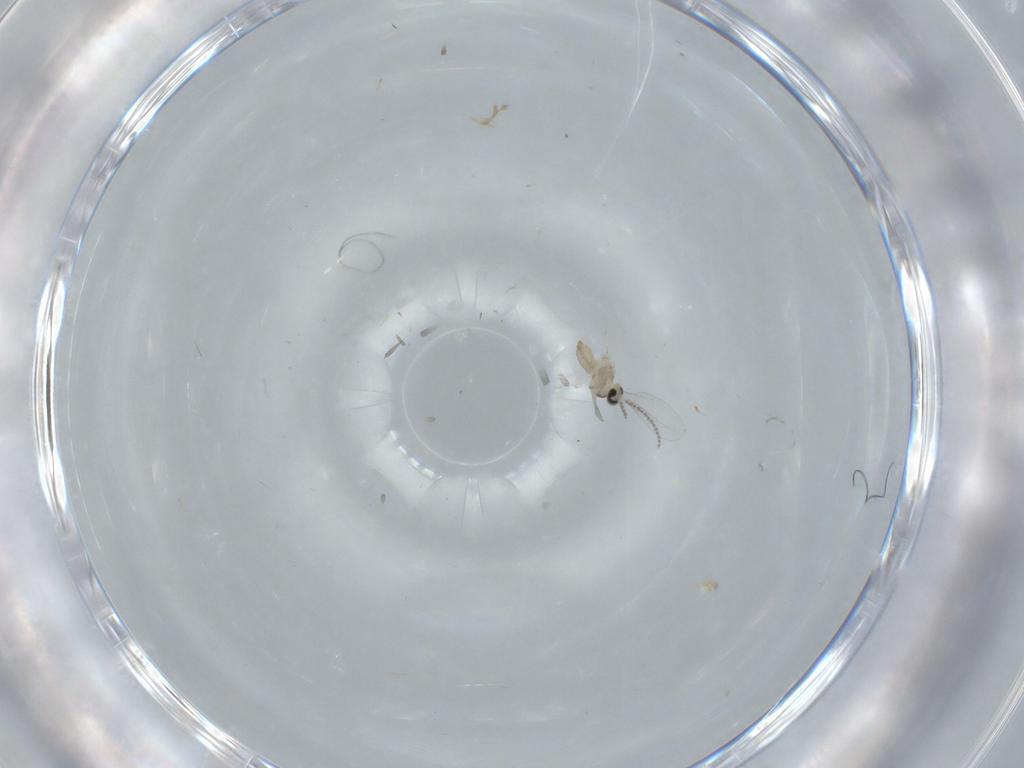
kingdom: Animalia
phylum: Arthropoda
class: Insecta
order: Diptera
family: Cecidomyiidae
